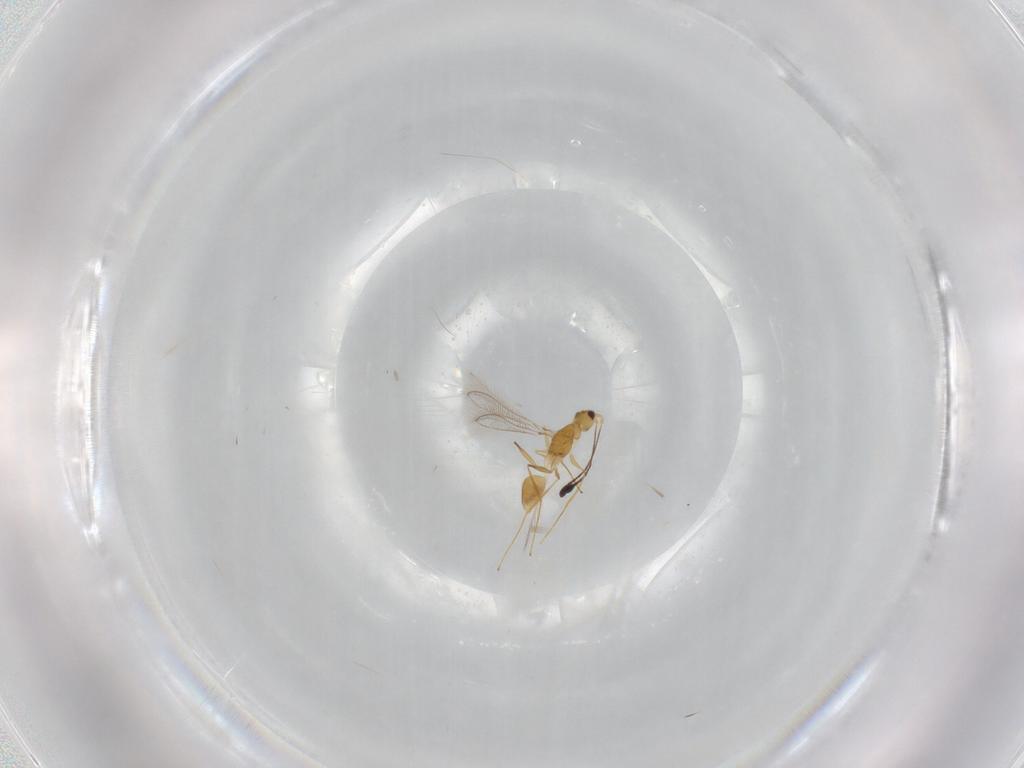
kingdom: Animalia
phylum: Arthropoda
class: Insecta
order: Hymenoptera
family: Mymaridae
